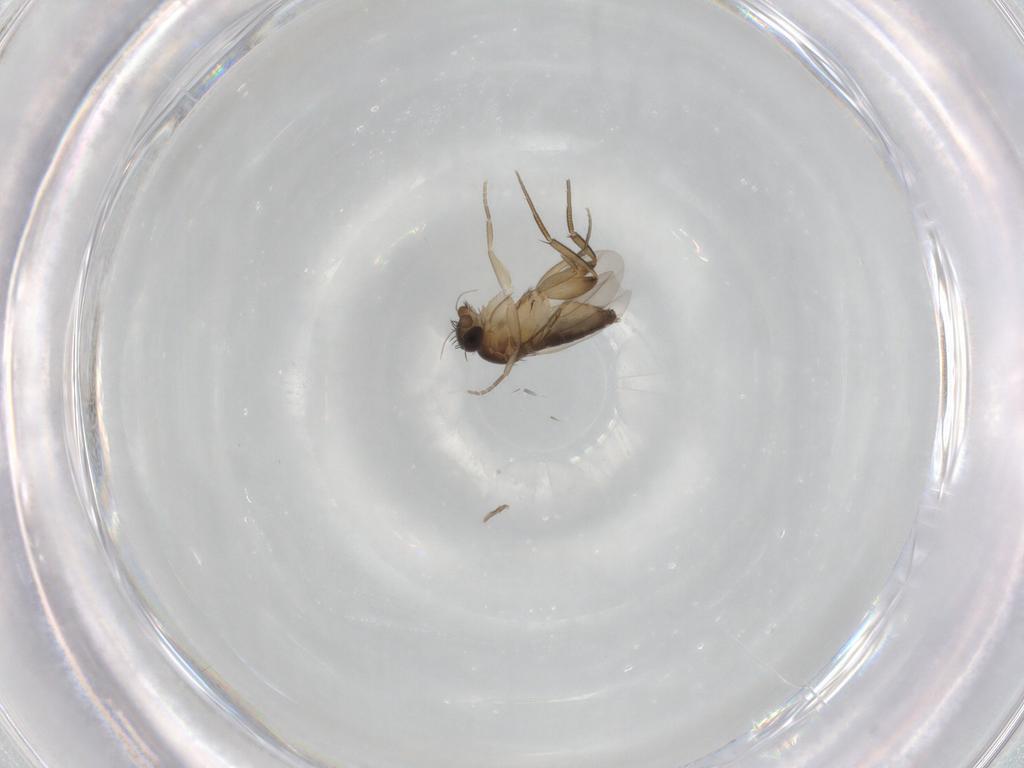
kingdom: Animalia
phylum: Arthropoda
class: Insecta
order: Diptera
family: Phoridae
